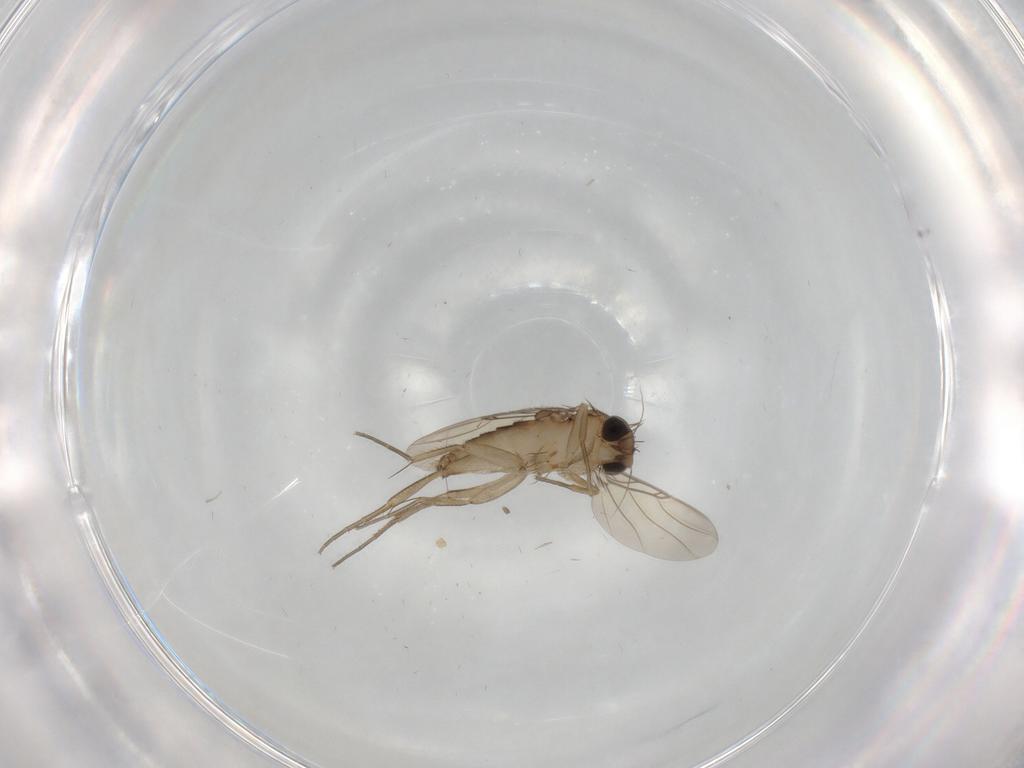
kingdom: Animalia
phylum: Arthropoda
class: Insecta
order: Diptera
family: Phoridae
